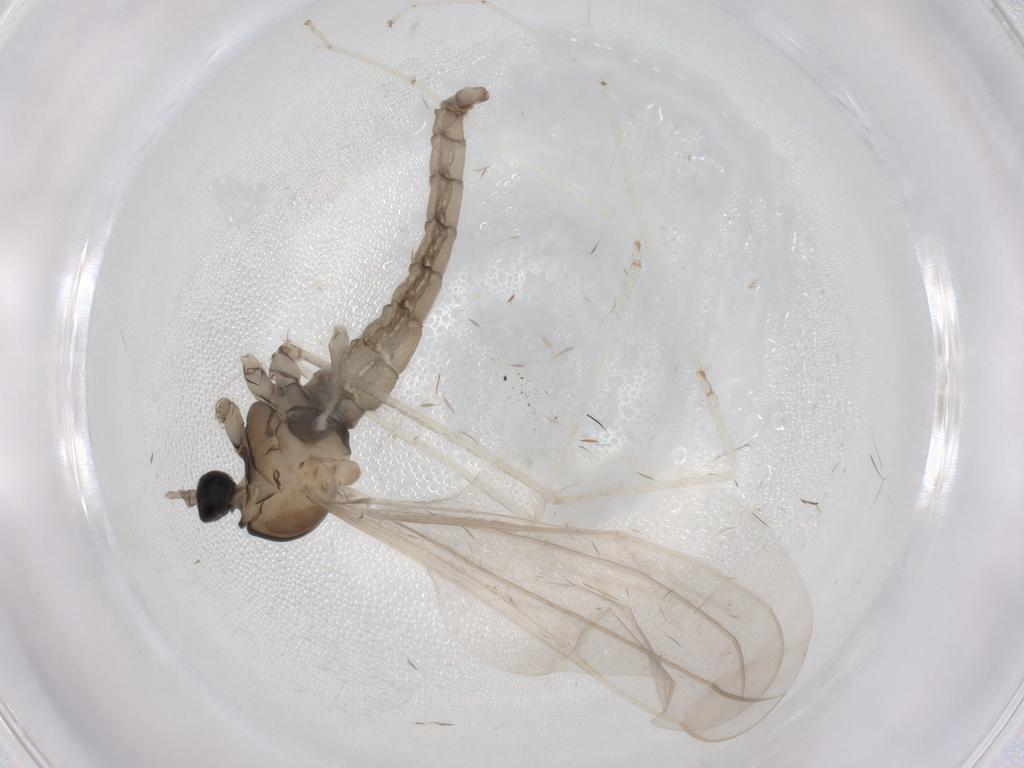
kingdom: Animalia
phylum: Arthropoda
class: Insecta
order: Diptera
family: Cecidomyiidae
